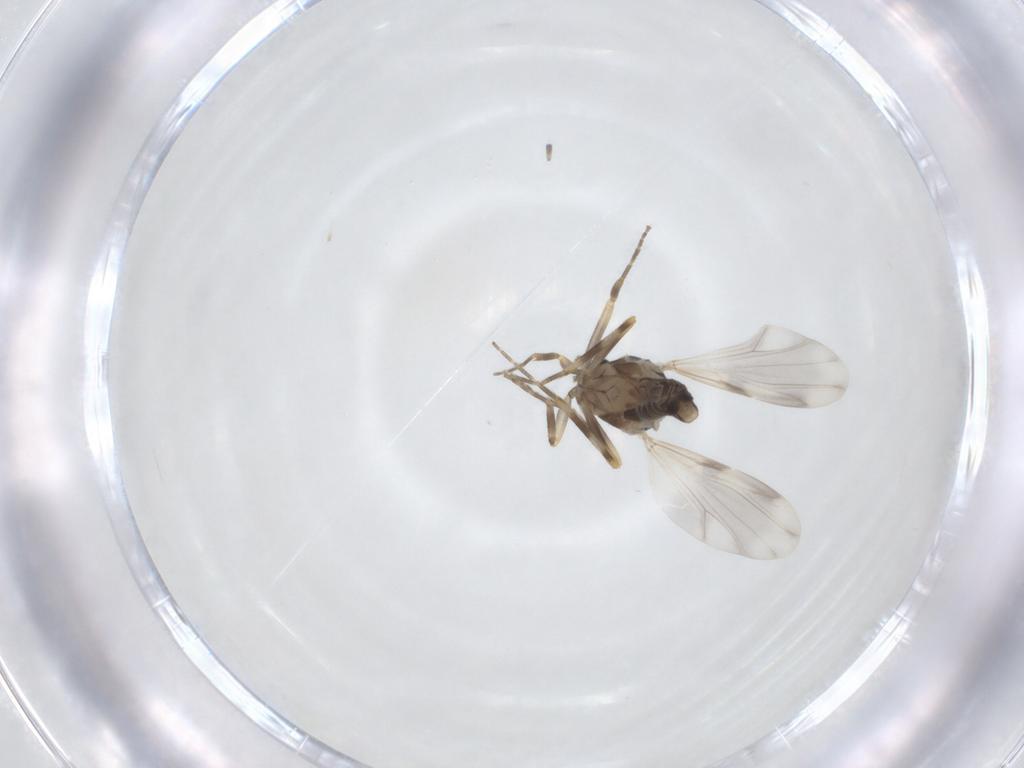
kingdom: Animalia
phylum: Arthropoda
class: Insecta
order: Diptera
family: Ceratopogonidae
